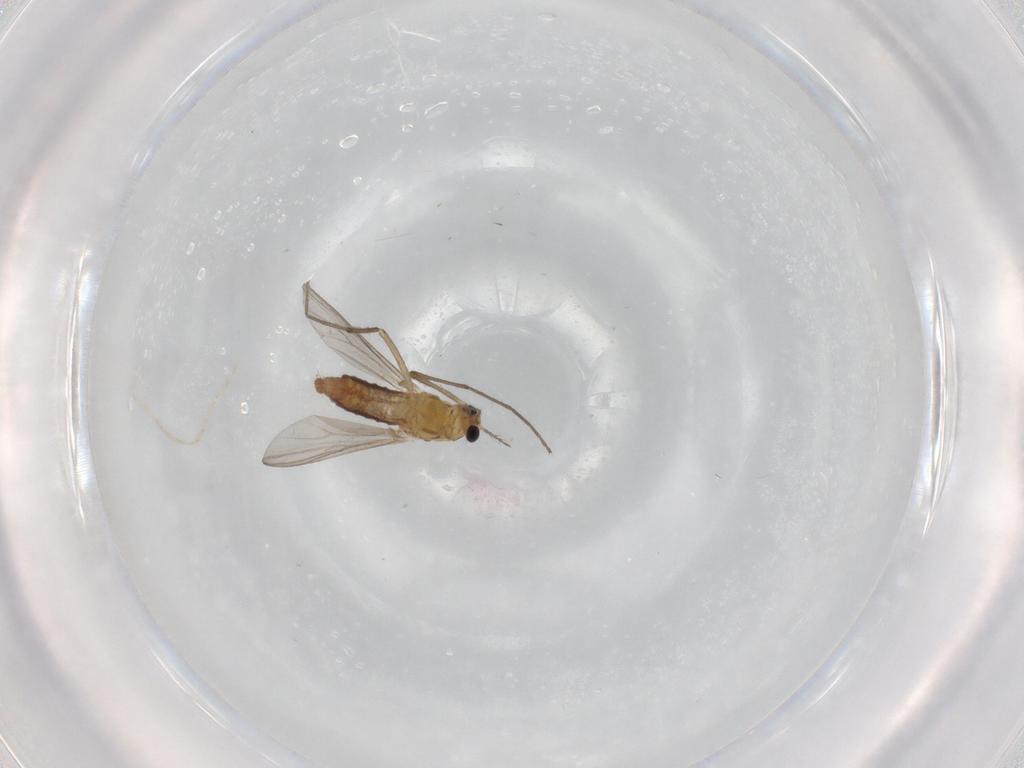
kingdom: Animalia
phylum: Arthropoda
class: Insecta
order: Diptera
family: Chironomidae
